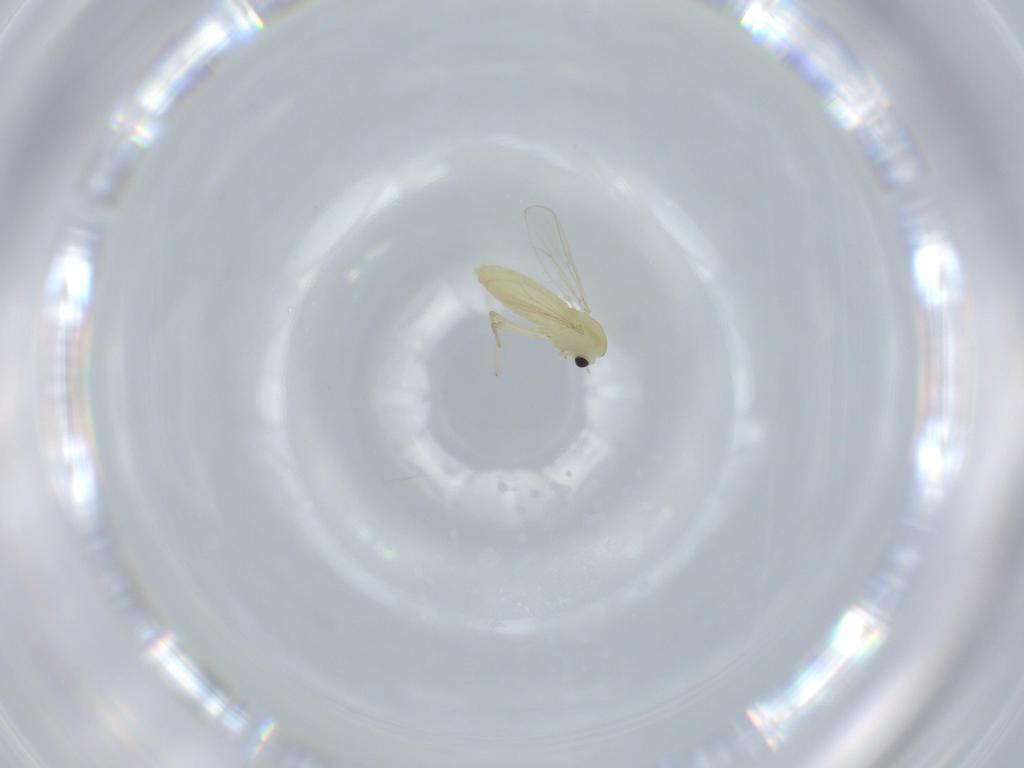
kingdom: Animalia
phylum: Arthropoda
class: Insecta
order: Diptera
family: Chironomidae
